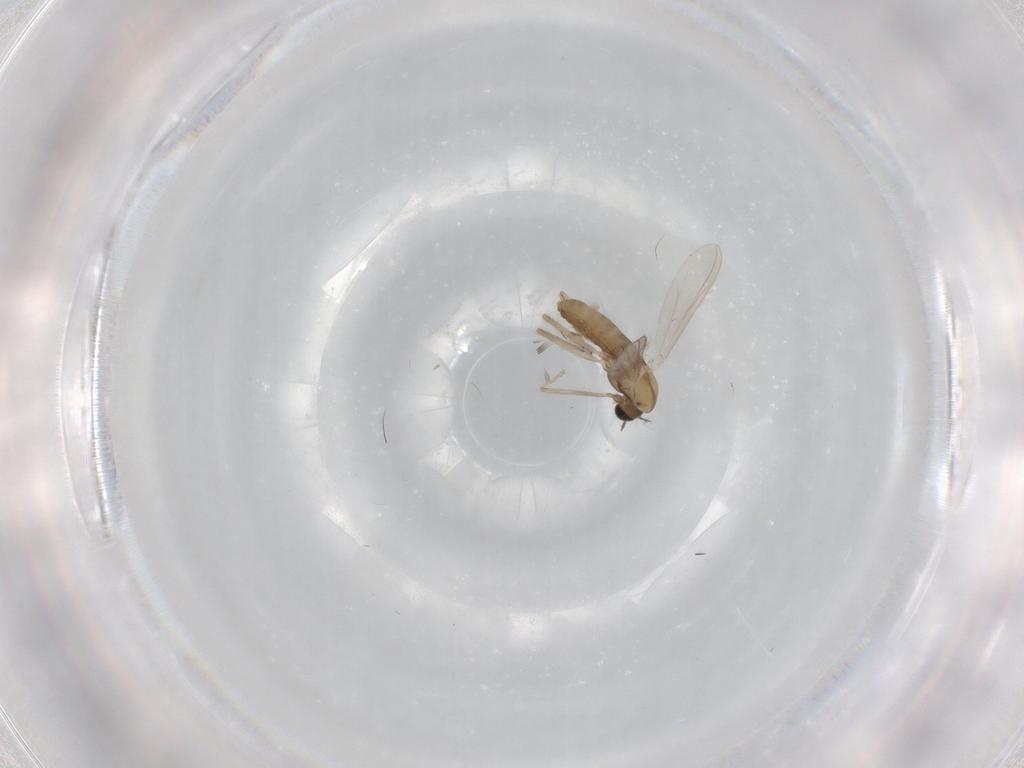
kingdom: Animalia
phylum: Arthropoda
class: Insecta
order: Diptera
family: Chironomidae
